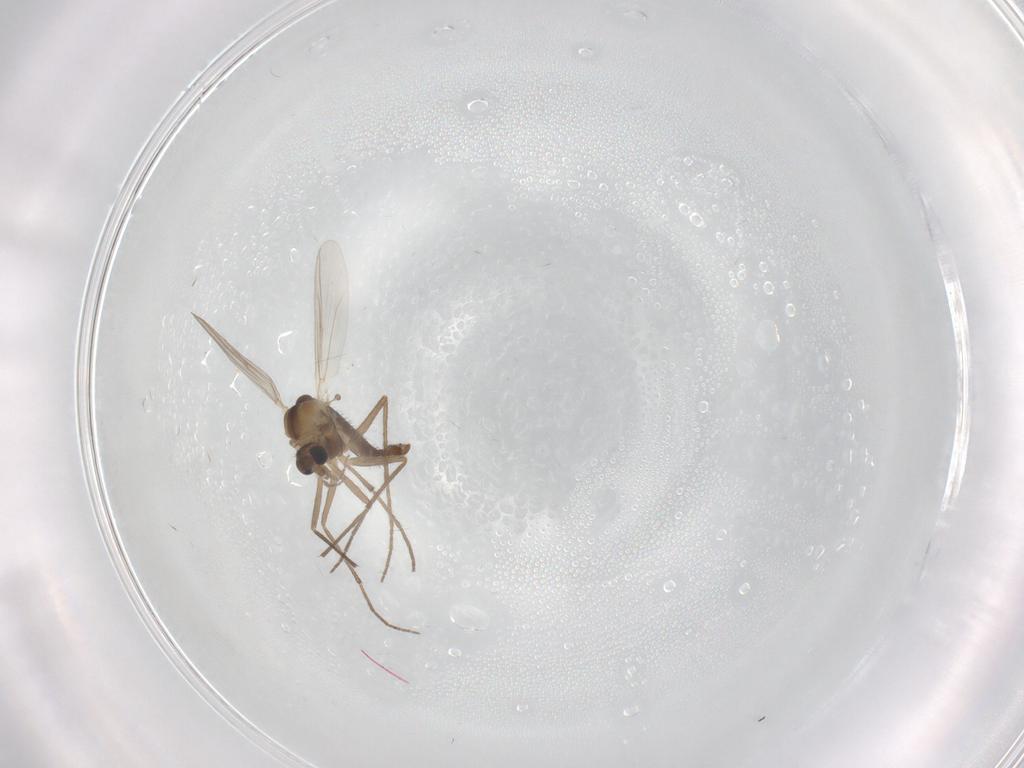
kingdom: Animalia
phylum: Arthropoda
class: Insecta
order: Diptera
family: Chironomidae
